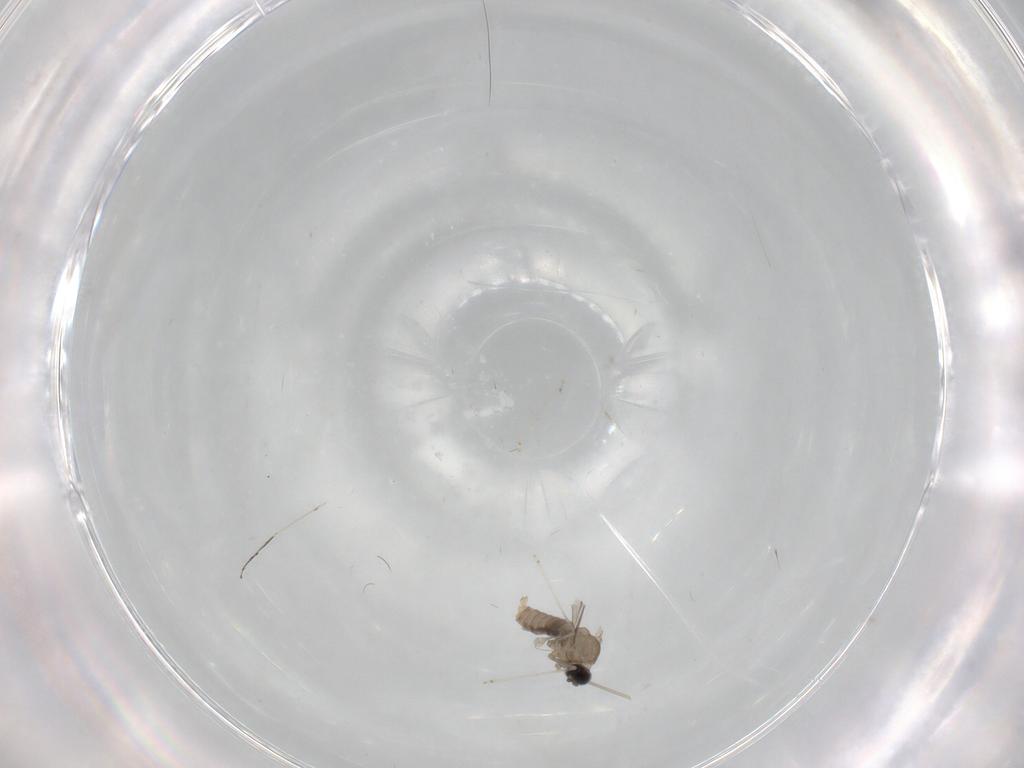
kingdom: Animalia
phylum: Arthropoda
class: Insecta
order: Diptera
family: Cecidomyiidae
